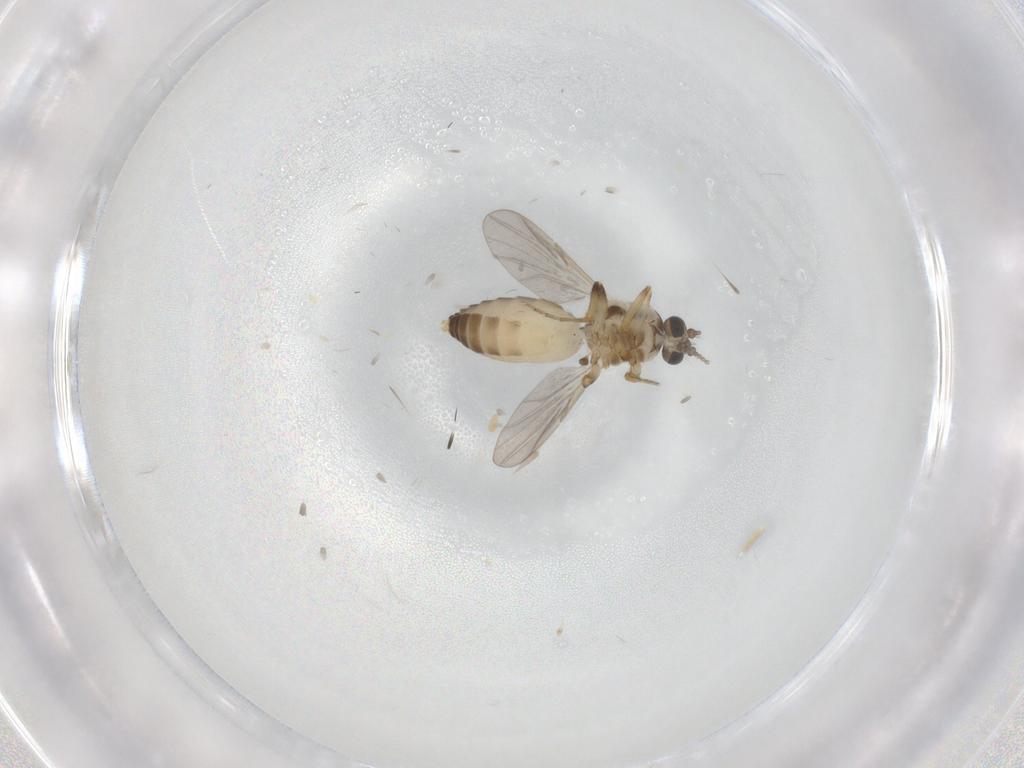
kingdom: Animalia
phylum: Arthropoda
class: Insecta
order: Diptera
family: Ceratopogonidae
